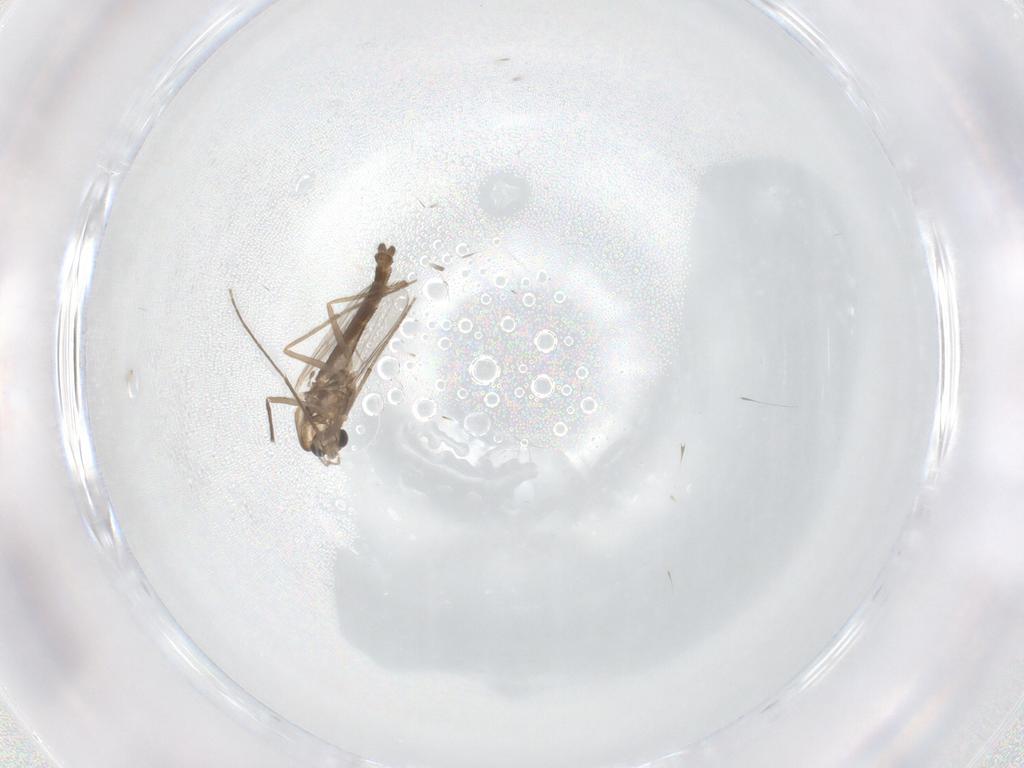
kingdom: Animalia
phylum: Arthropoda
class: Insecta
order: Diptera
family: Chironomidae
